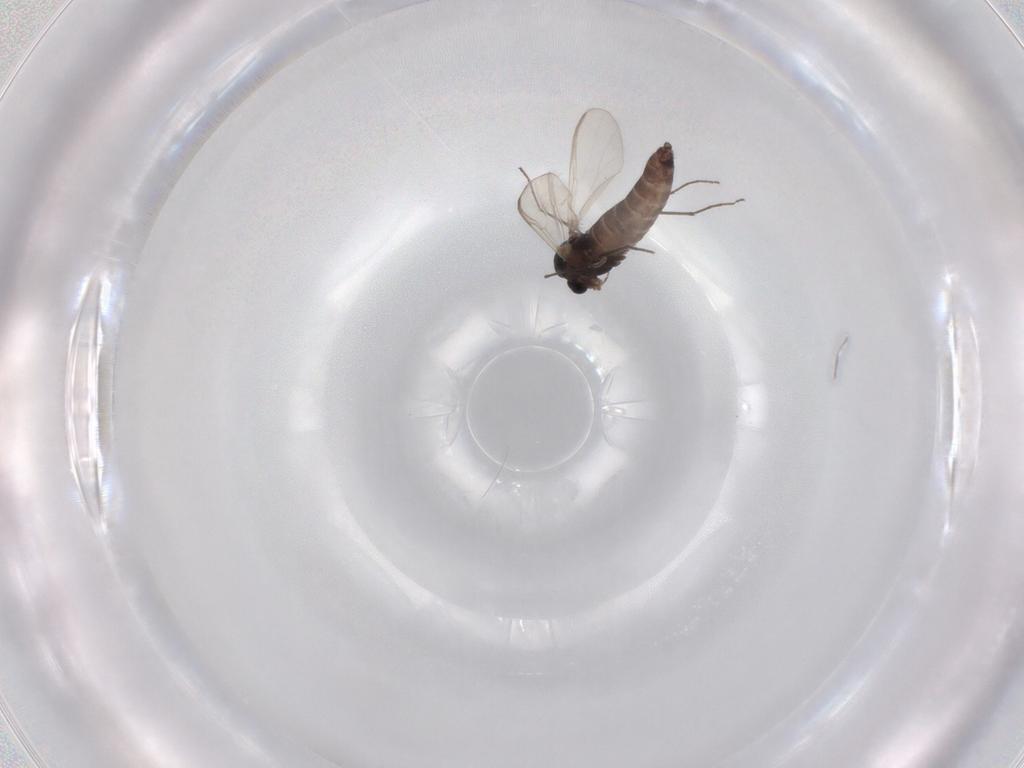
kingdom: Animalia
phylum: Arthropoda
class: Insecta
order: Diptera
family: Chironomidae
